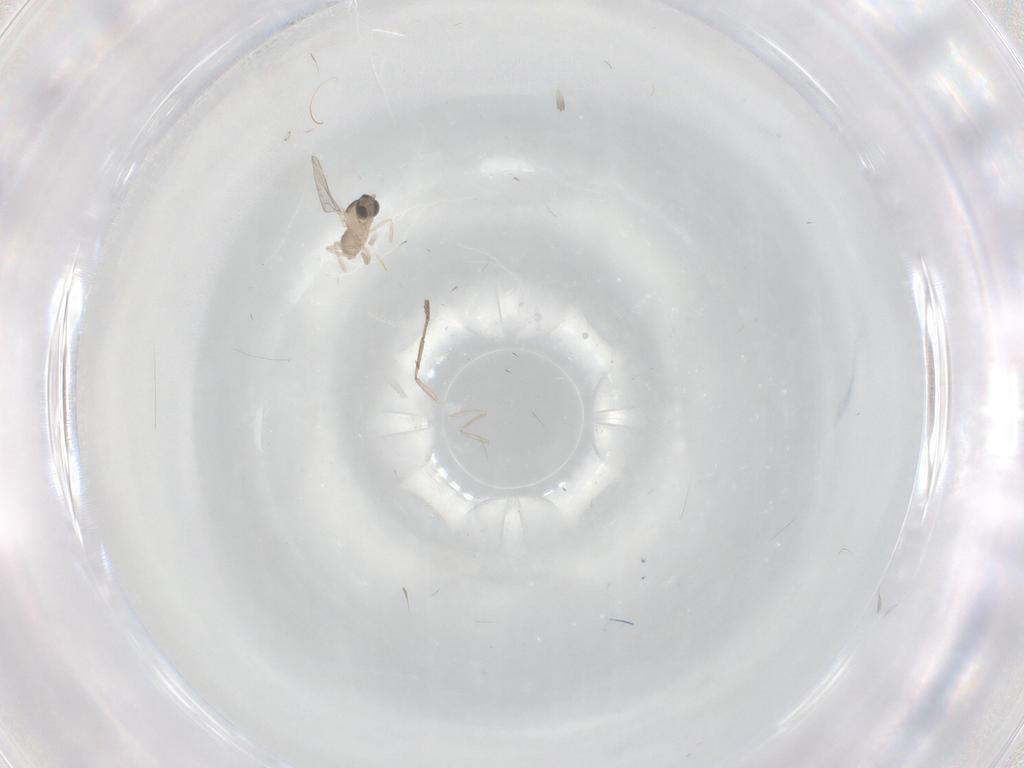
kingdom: Animalia
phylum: Arthropoda
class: Insecta
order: Diptera
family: Cecidomyiidae
